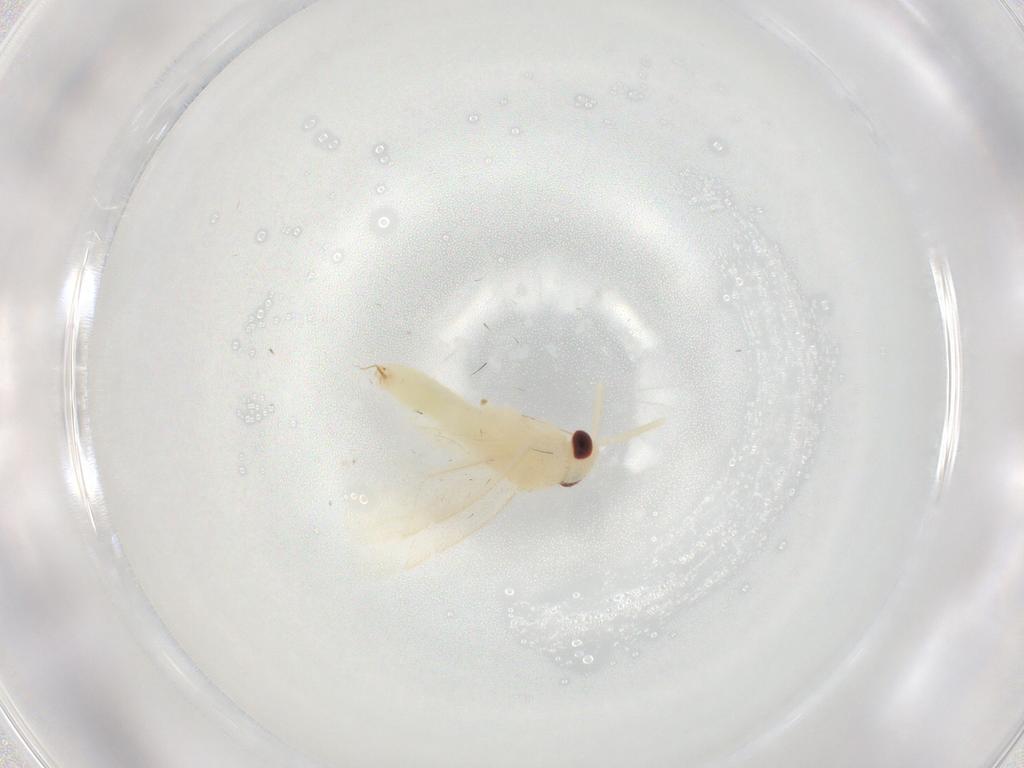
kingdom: Animalia
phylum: Arthropoda
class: Insecta
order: Hemiptera
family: Miridae
